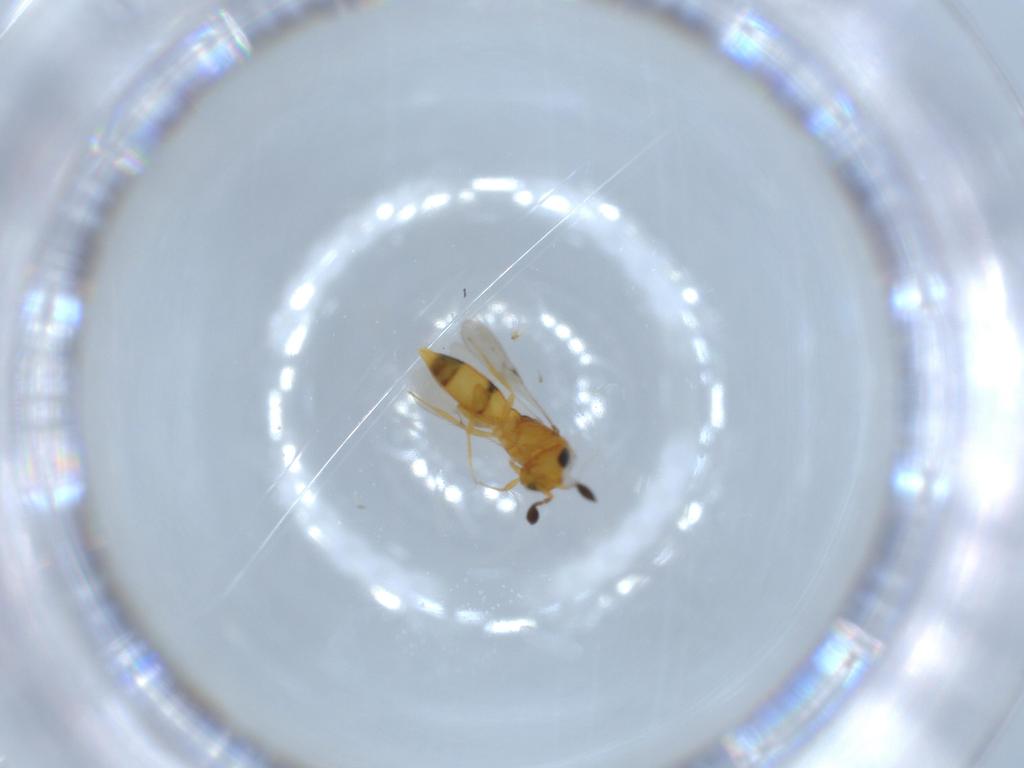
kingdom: Animalia
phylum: Arthropoda
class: Insecta
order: Hymenoptera
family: Scelionidae
